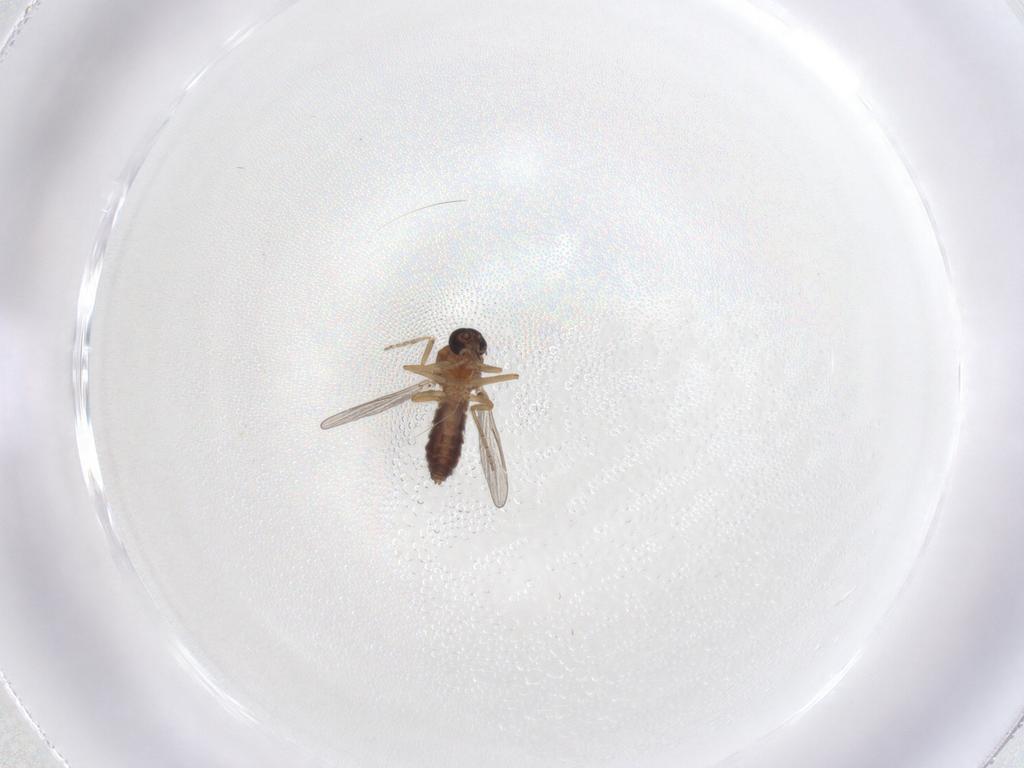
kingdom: Animalia
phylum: Arthropoda
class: Insecta
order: Diptera
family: Ceratopogonidae
